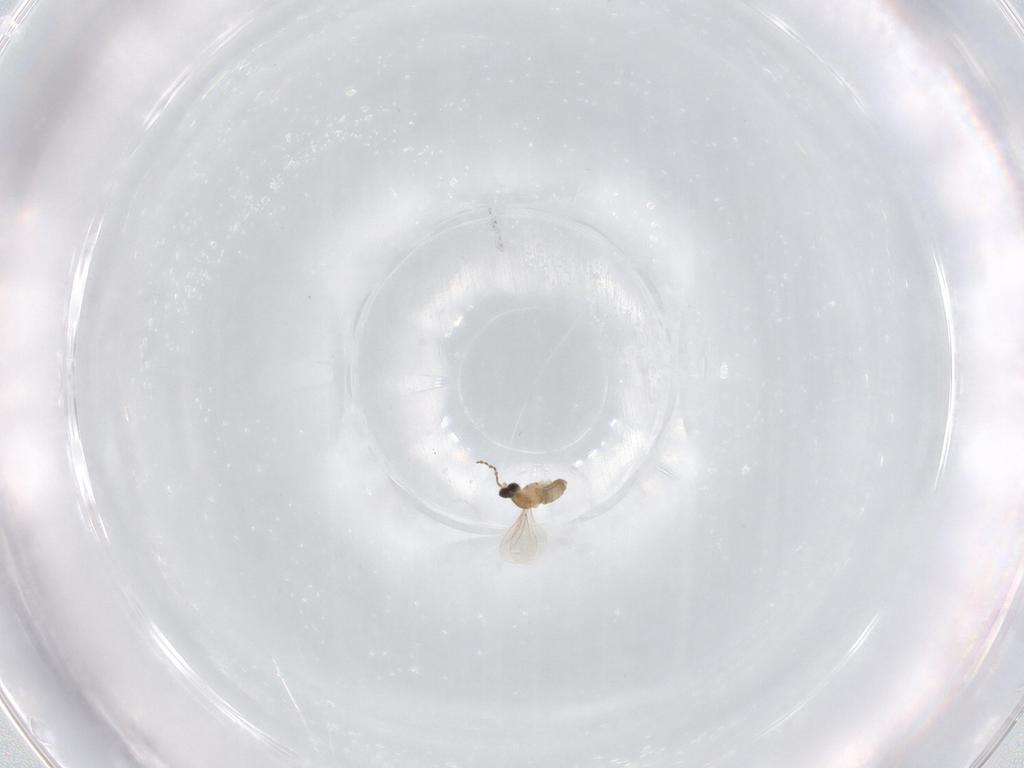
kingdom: Animalia
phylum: Arthropoda
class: Insecta
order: Diptera
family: Cecidomyiidae
